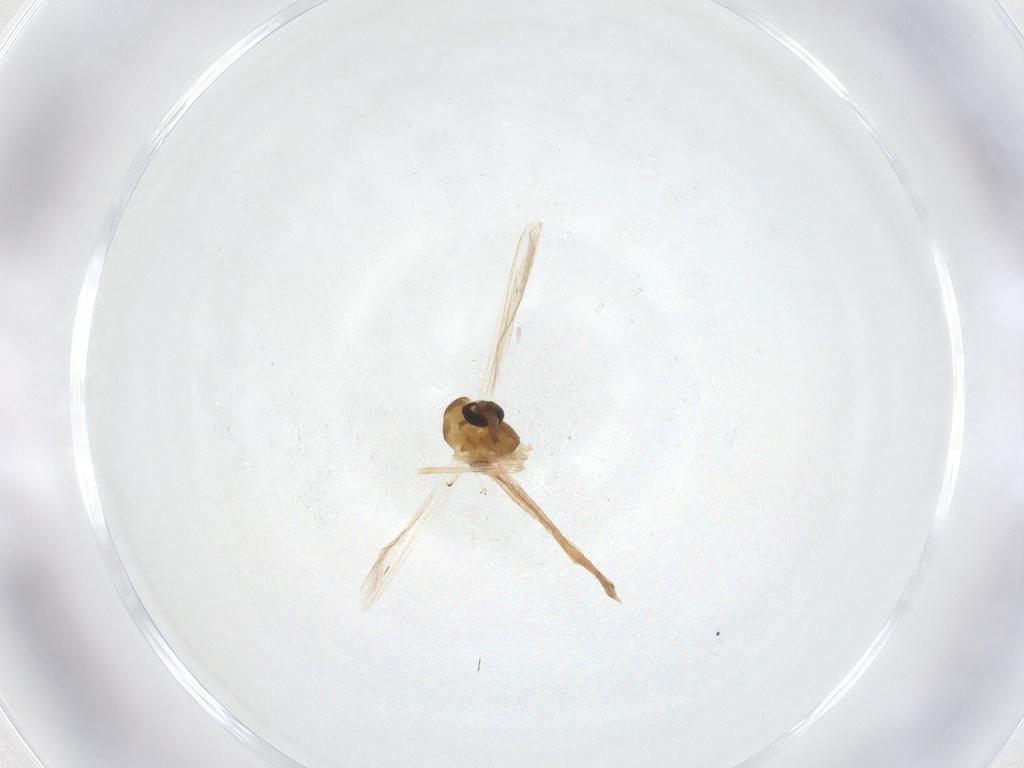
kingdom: Animalia
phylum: Arthropoda
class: Insecta
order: Diptera
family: Chironomidae
